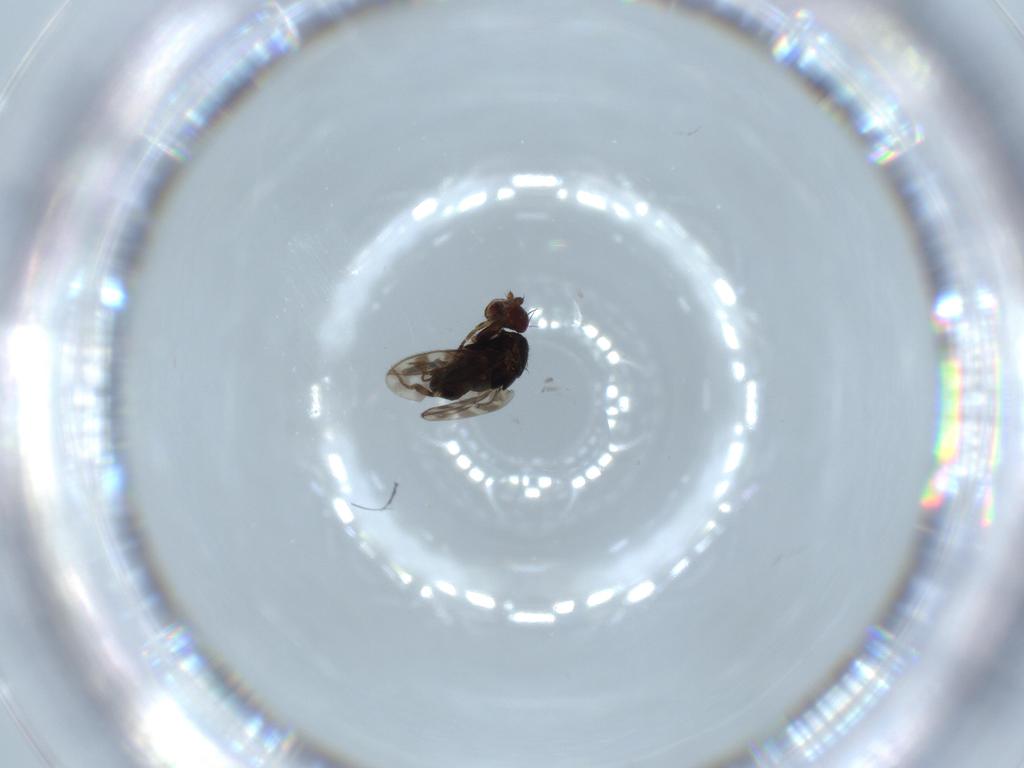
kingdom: Animalia
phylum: Arthropoda
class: Insecta
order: Diptera
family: Sphaeroceridae
